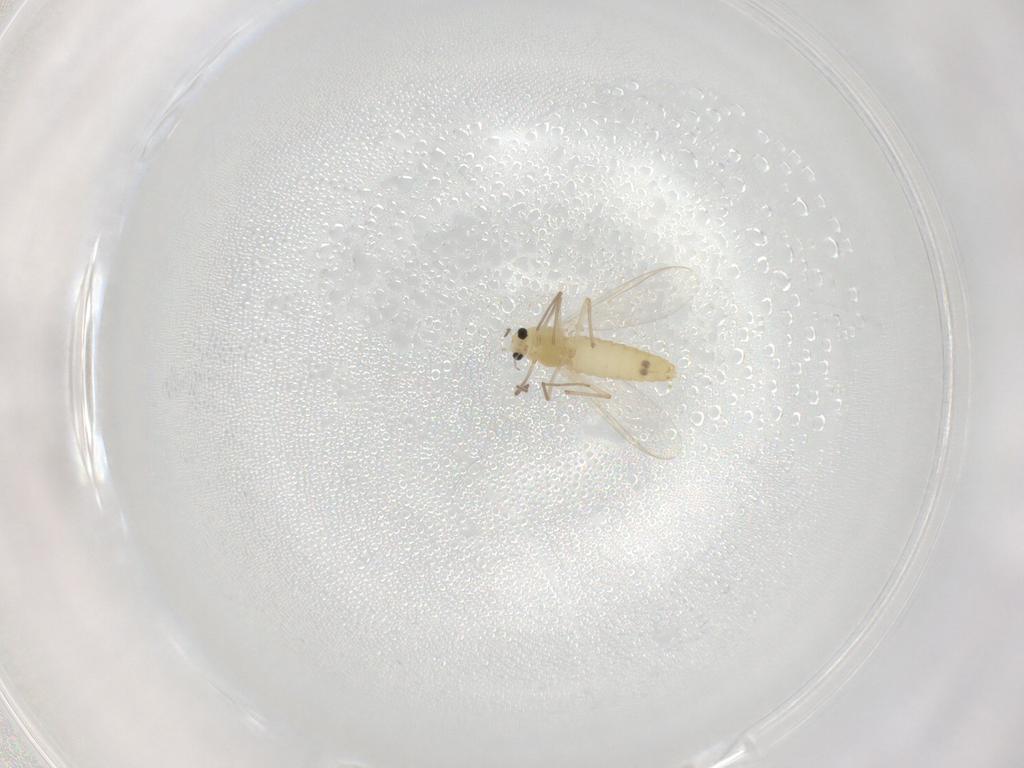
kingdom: Animalia
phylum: Arthropoda
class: Insecta
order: Diptera
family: Chironomidae
